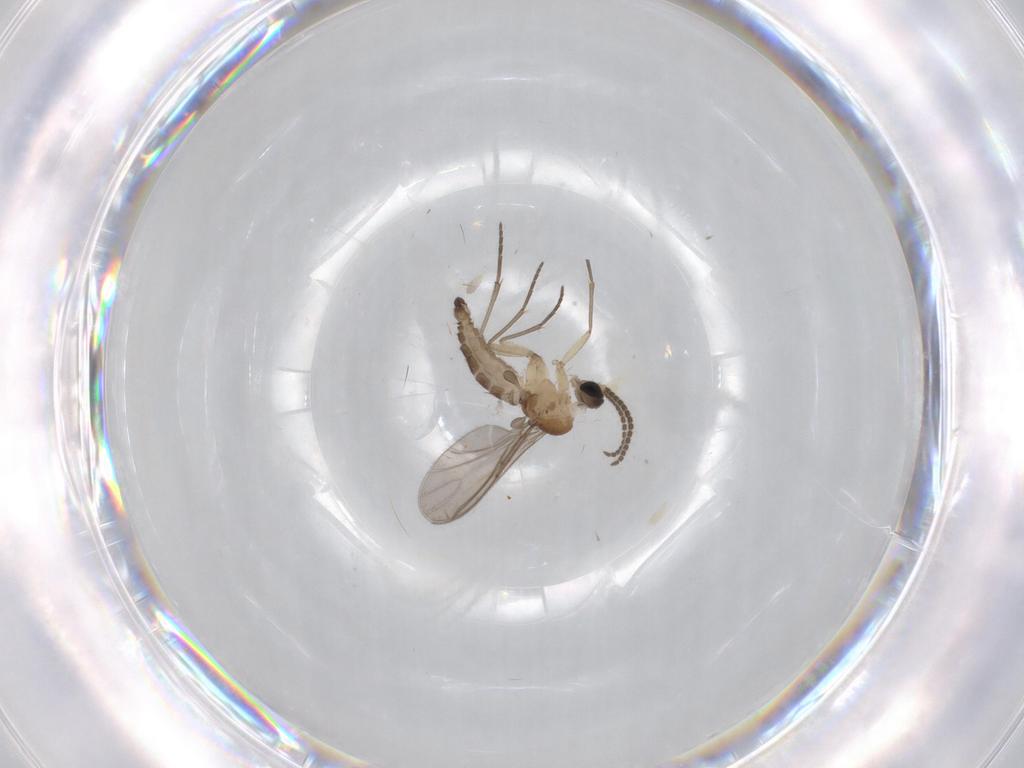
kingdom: Animalia
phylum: Arthropoda
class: Insecta
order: Diptera
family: Sciaridae
